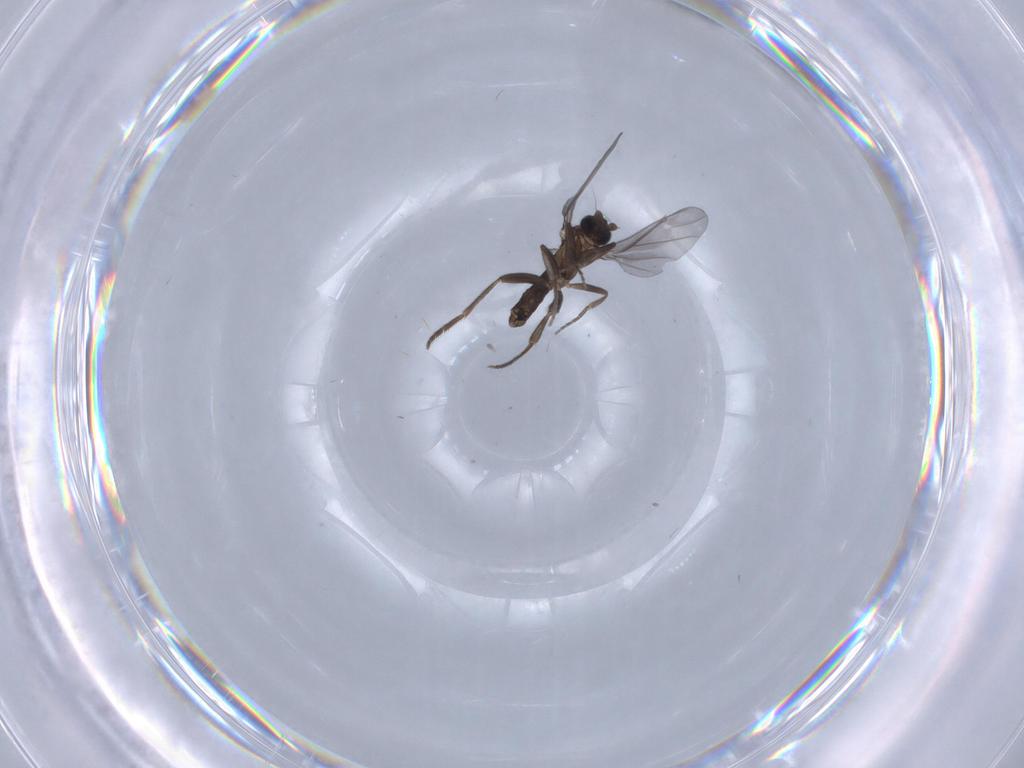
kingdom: Animalia
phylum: Arthropoda
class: Insecta
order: Diptera
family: Cecidomyiidae
